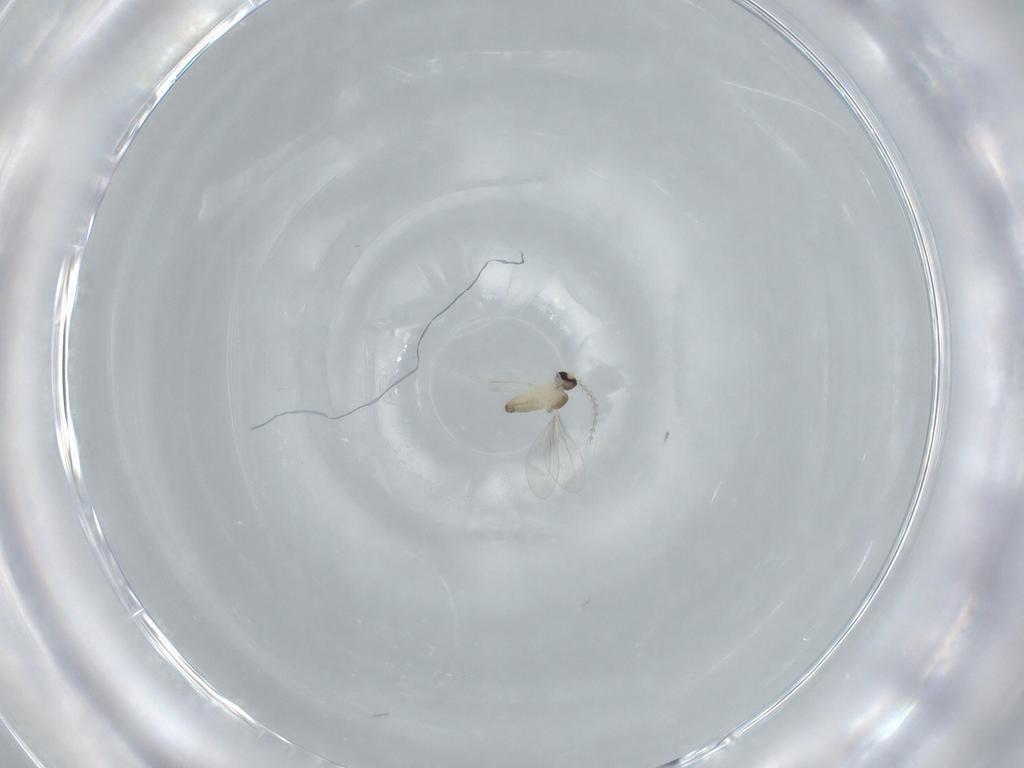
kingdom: Animalia
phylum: Arthropoda
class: Insecta
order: Diptera
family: Cecidomyiidae
